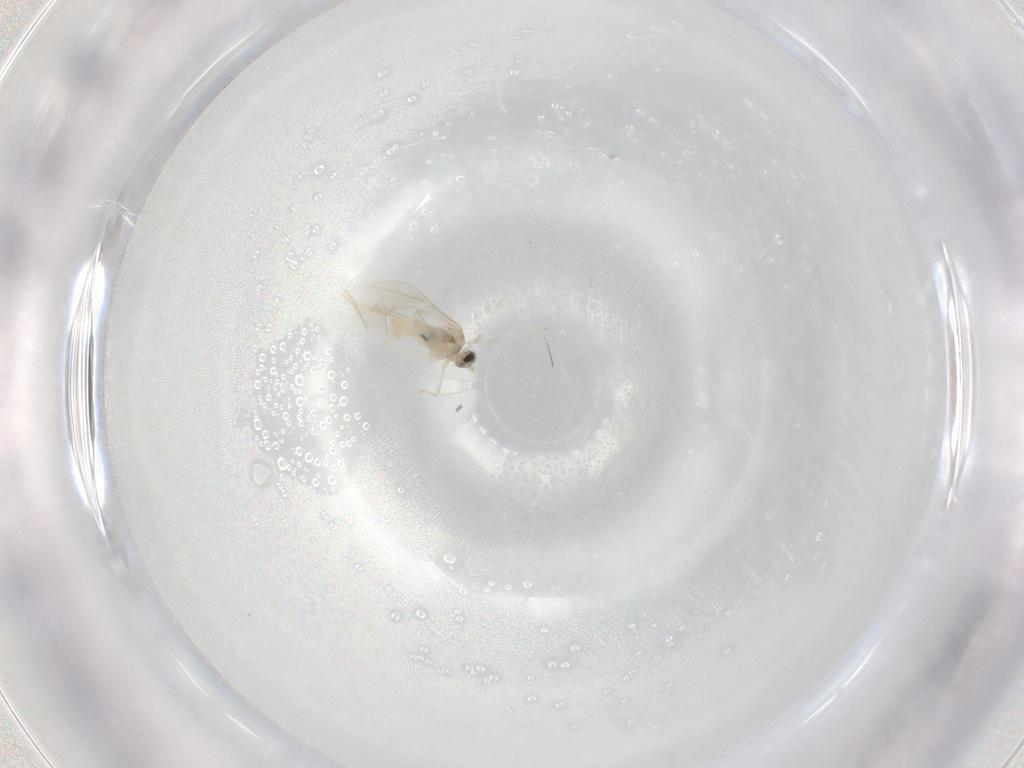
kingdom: Animalia
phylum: Arthropoda
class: Insecta
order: Diptera
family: Cecidomyiidae
